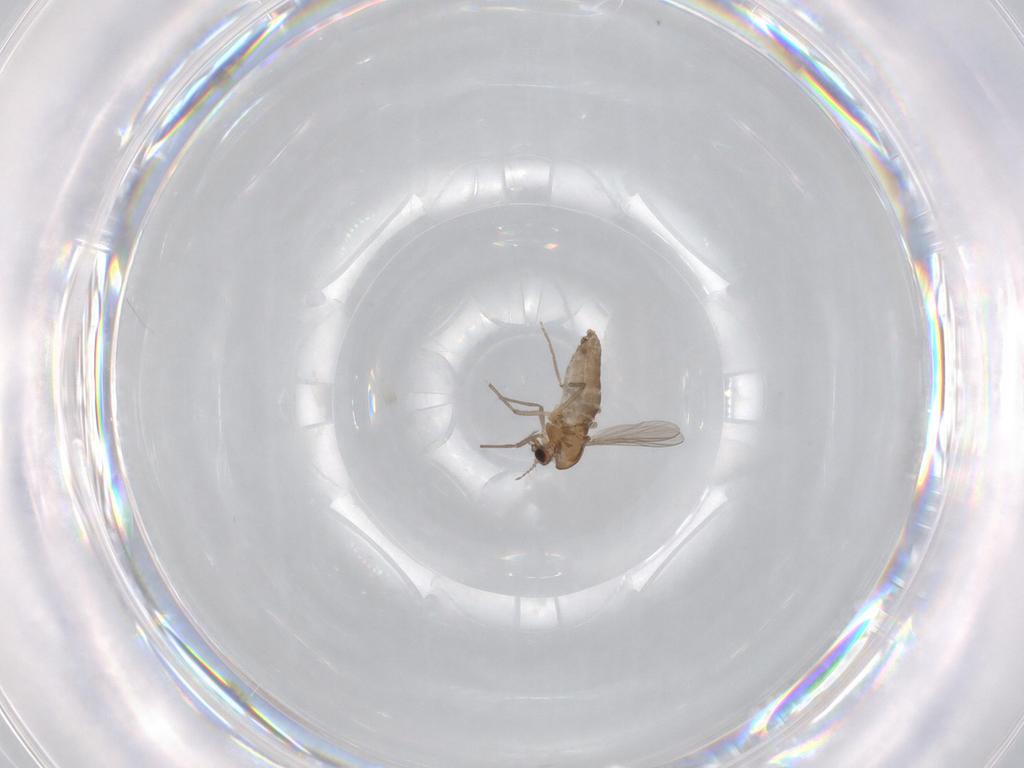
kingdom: Animalia
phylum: Arthropoda
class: Insecta
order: Diptera
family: Chironomidae
